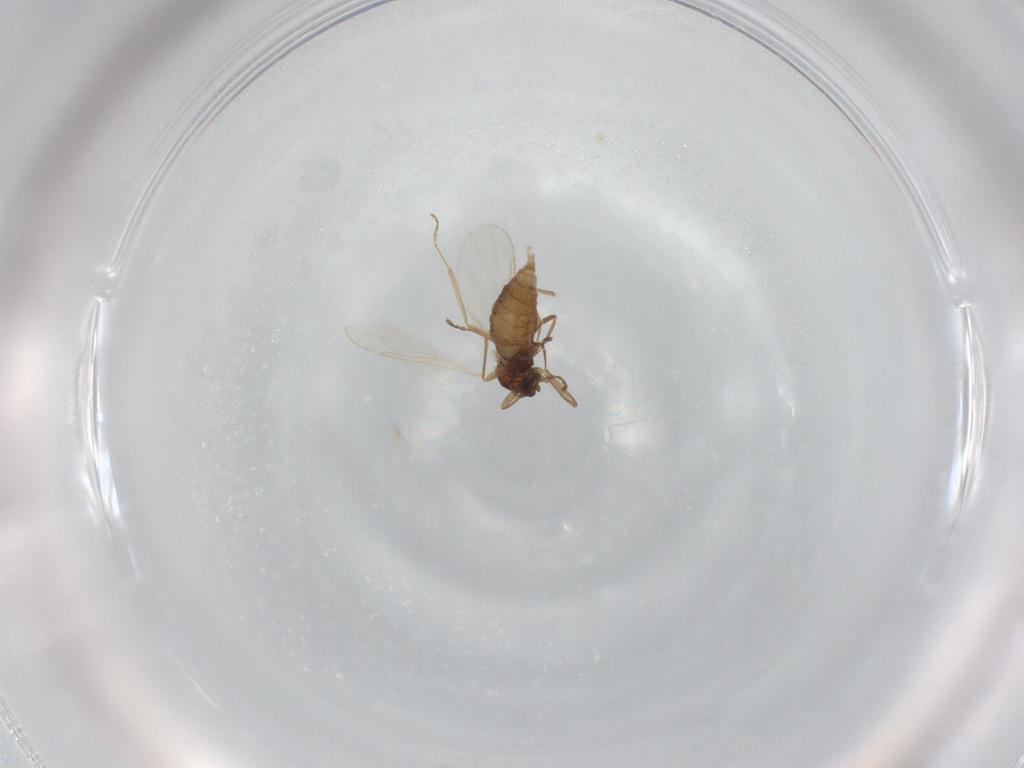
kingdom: Animalia
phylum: Arthropoda
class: Insecta
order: Diptera
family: Cecidomyiidae
